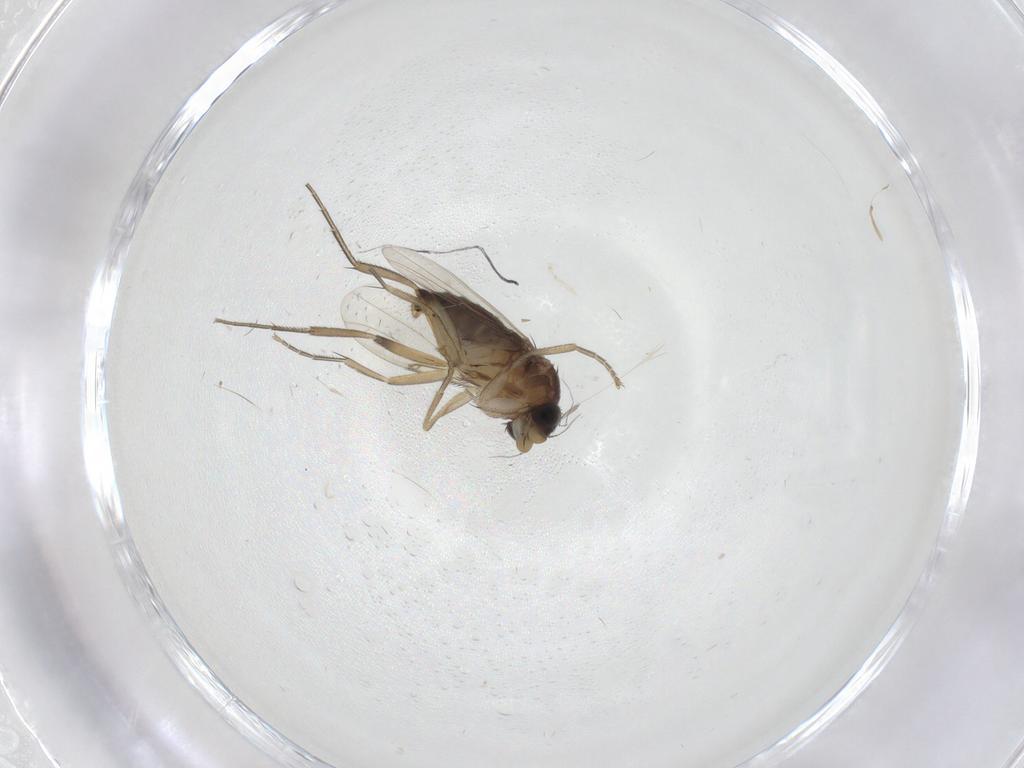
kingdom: Animalia
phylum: Arthropoda
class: Insecta
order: Diptera
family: Phoridae
